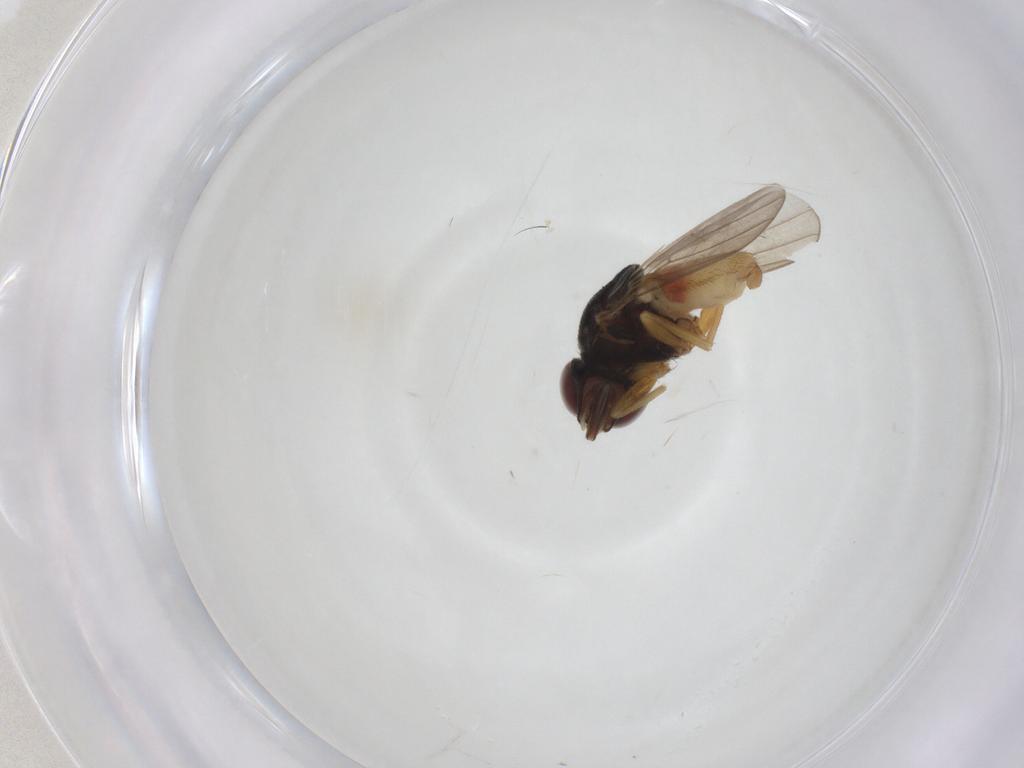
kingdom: Animalia
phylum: Arthropoda
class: Insecta
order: Diptera
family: Chloropidae
